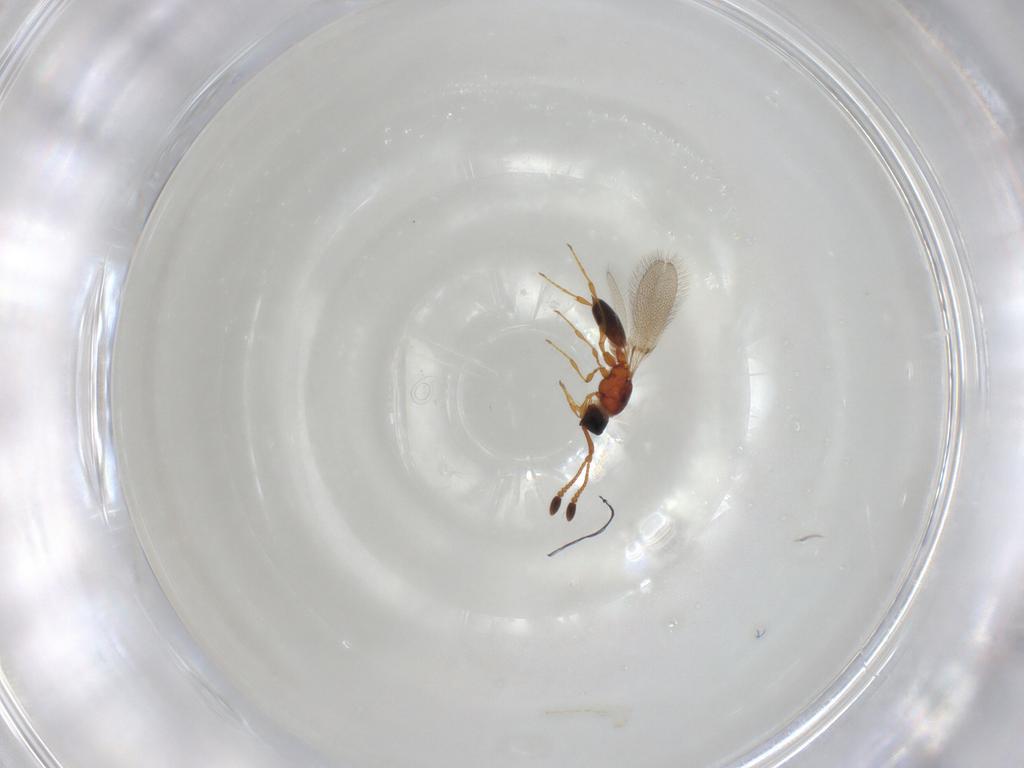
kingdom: Animalia
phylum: Arthropoda
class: Insecta
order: Hymenoptera
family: Diapriidae
